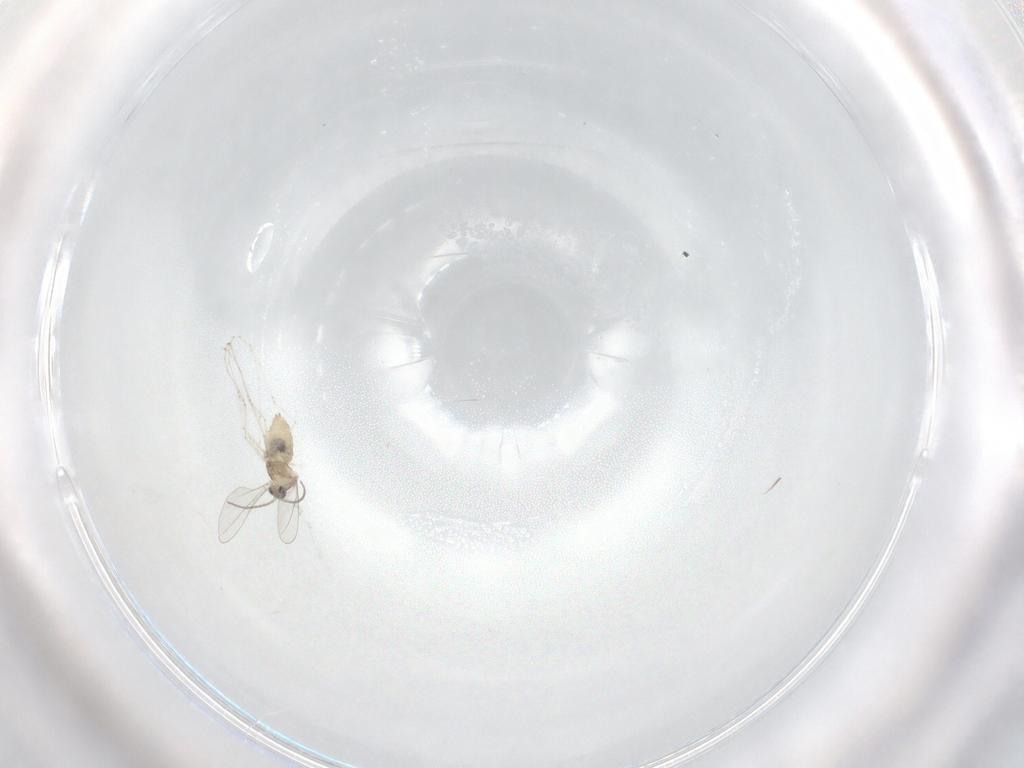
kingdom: Animalia
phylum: Arthropoda
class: Insecta
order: Diptera
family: Cecidomyiidae
